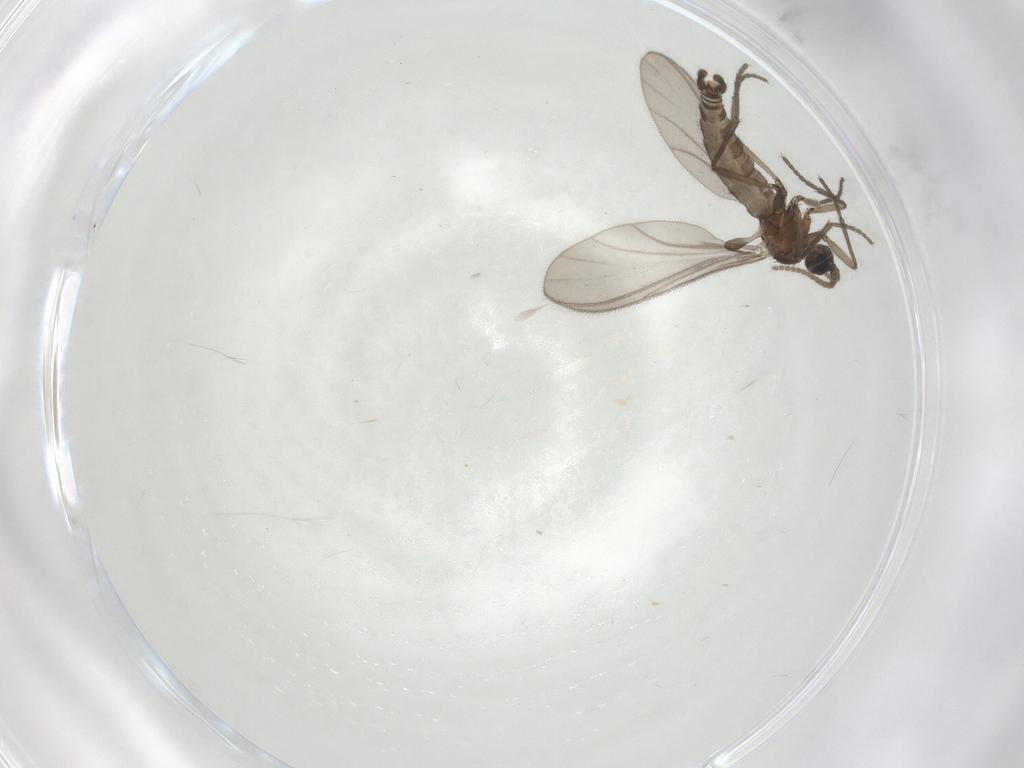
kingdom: Animalia
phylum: Arthropoda
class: Insecta
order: Diptera
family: Sciaridae
